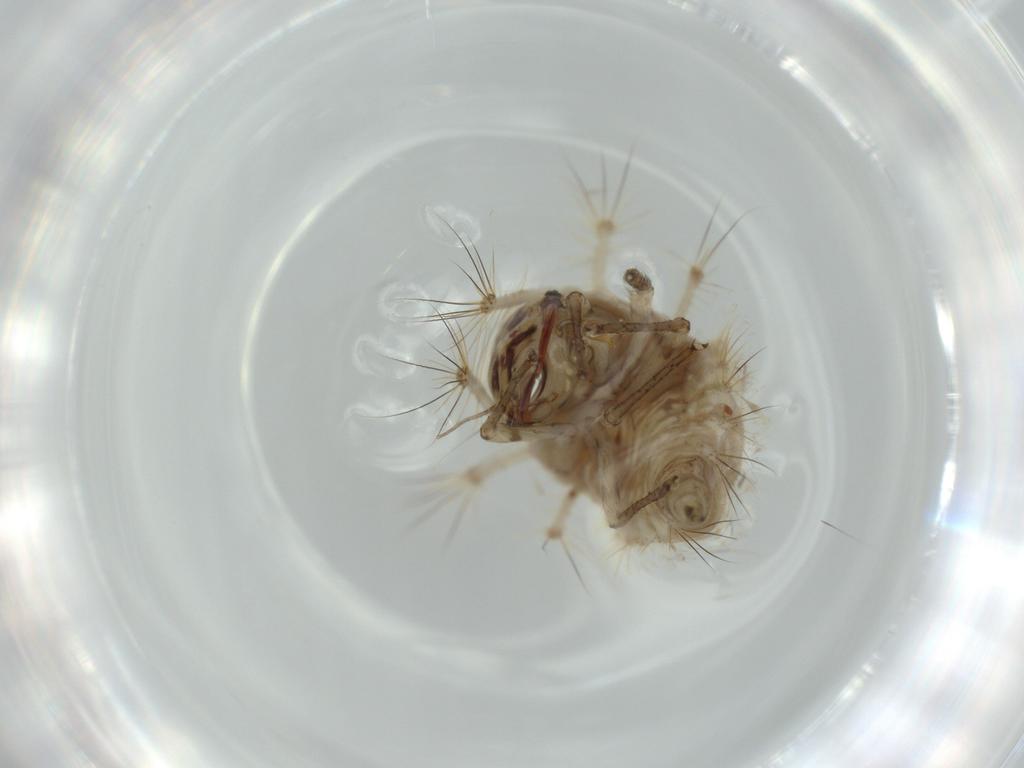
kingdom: Animalia
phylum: Arthropoda
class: Insecta
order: Neuroptera
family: Chrysopidae
